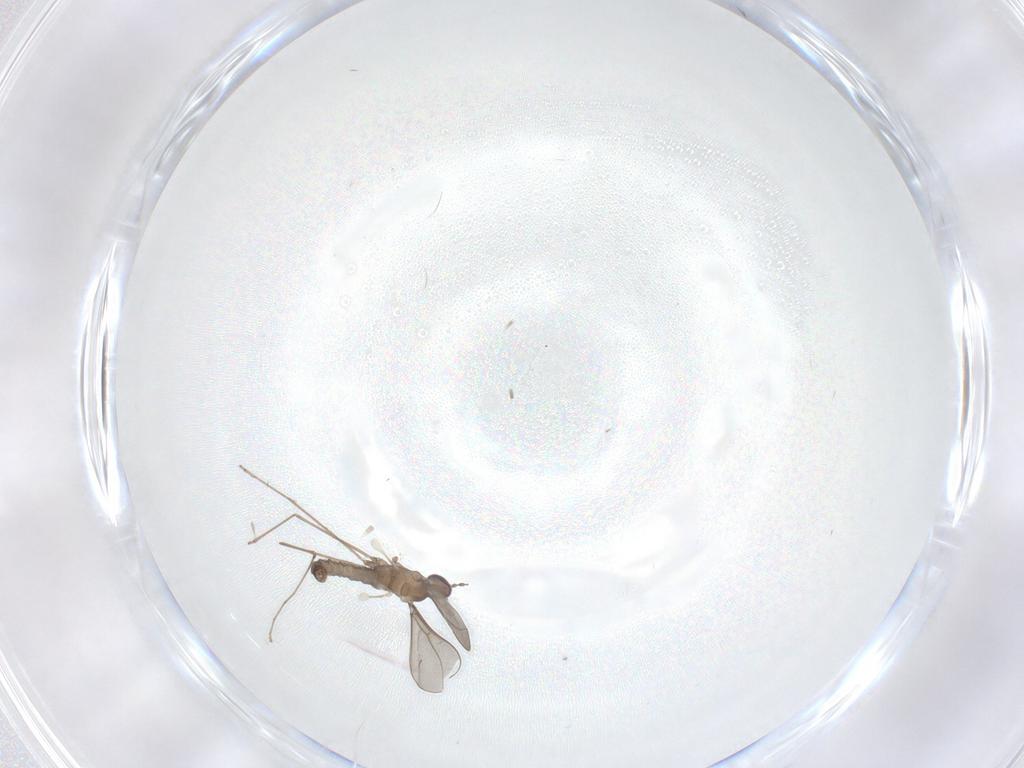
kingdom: Animalia
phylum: Arthropoda
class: Insecta
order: Diptera
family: Cecidomyiidae
